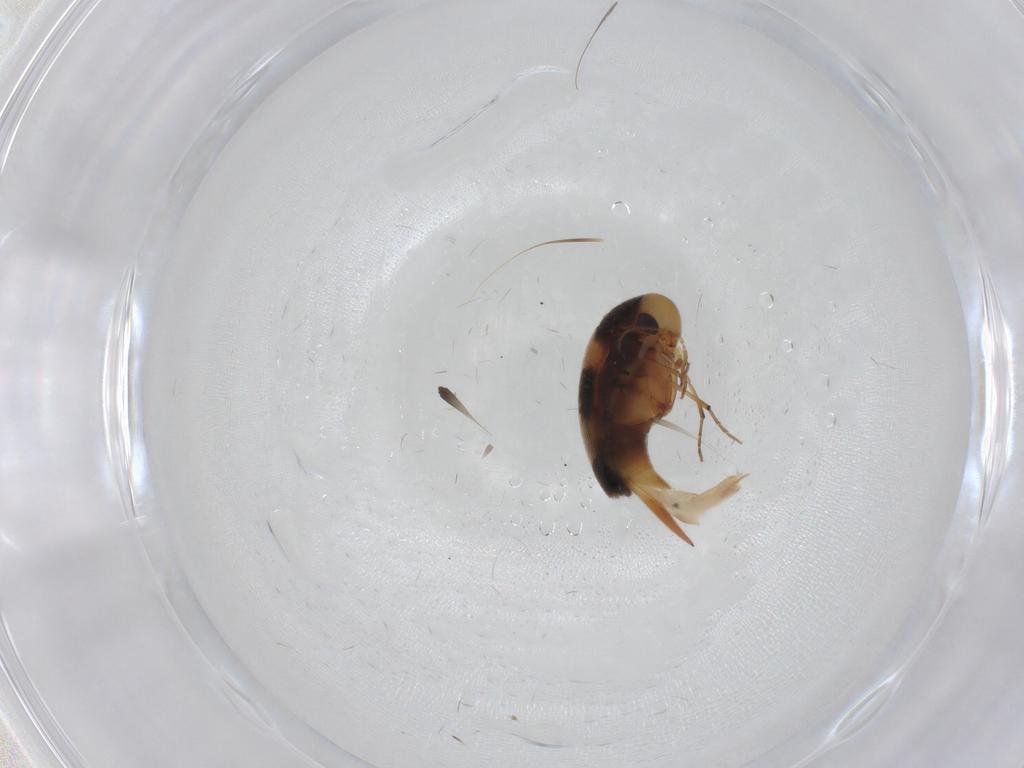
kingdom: Animalia
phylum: Arthropoda
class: Insecta
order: Coleoptera
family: Mordellidae
